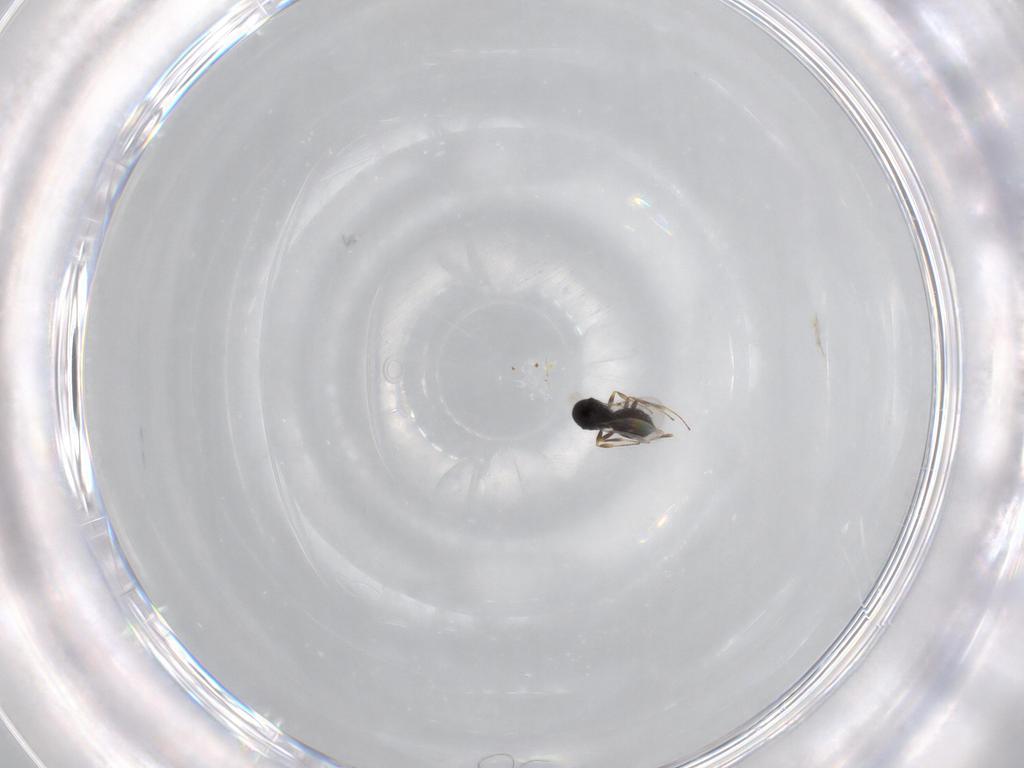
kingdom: Animalia
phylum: Arthropoda
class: Insecta
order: Hymenoptera
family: Scelionidae
